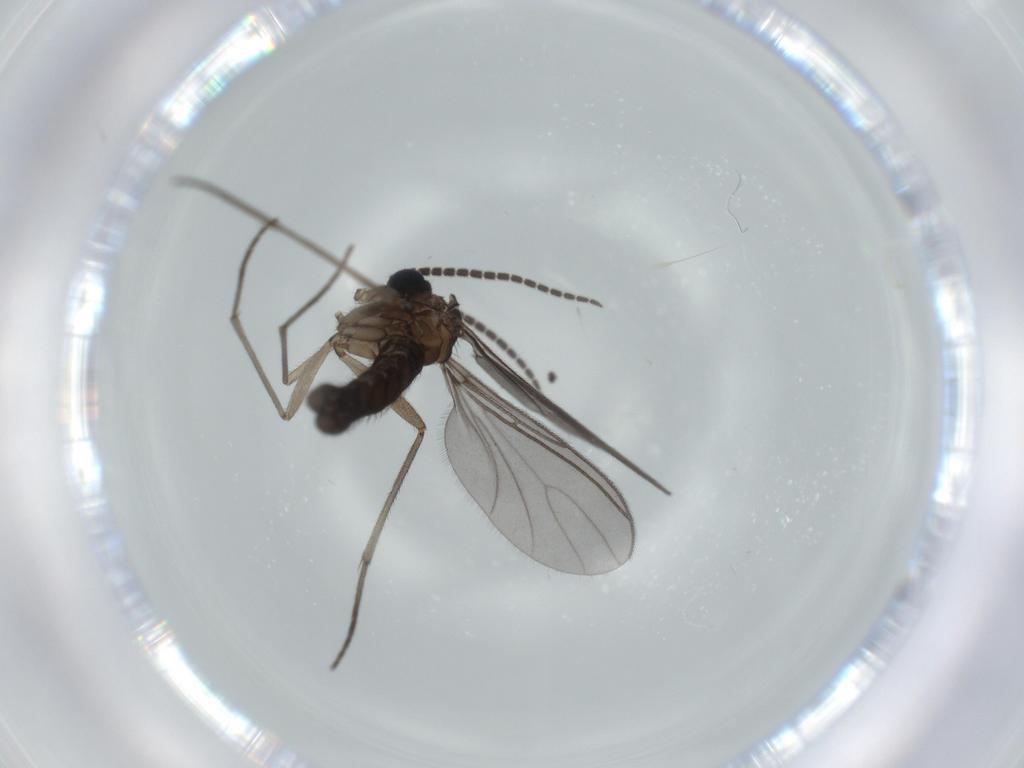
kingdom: Animalia
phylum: Arthropoda
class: Insecta
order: Diptera
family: Sciaridae
